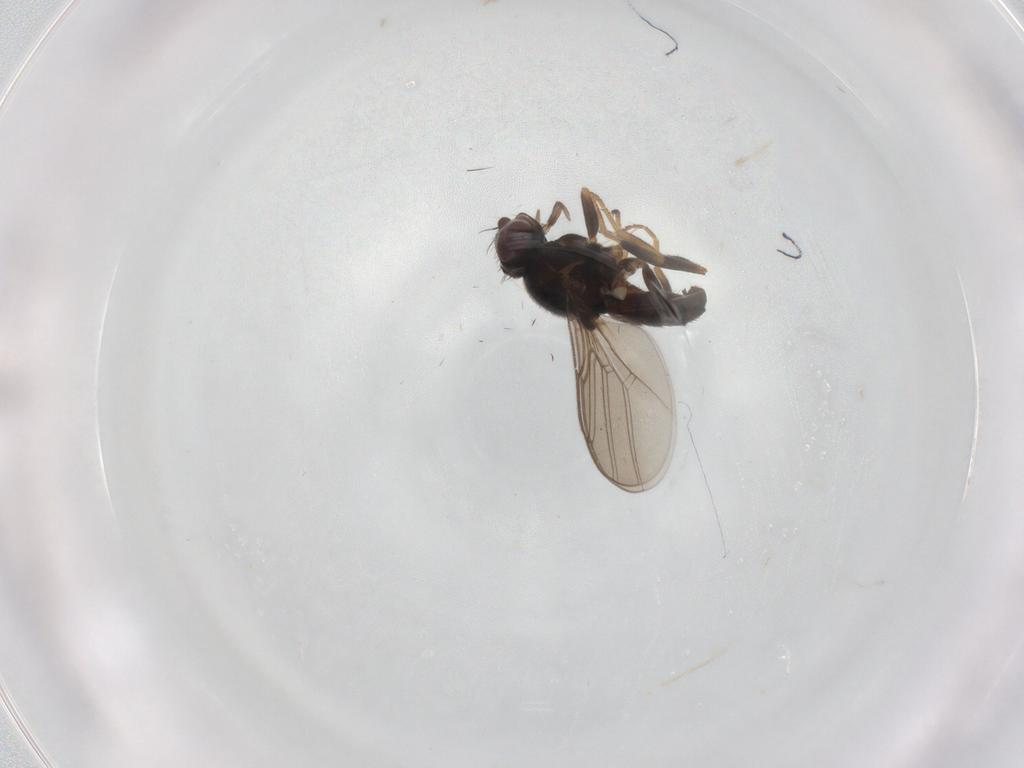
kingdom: Animalia
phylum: Arthropoda
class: Insecta
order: Diptera
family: Chloropidae
